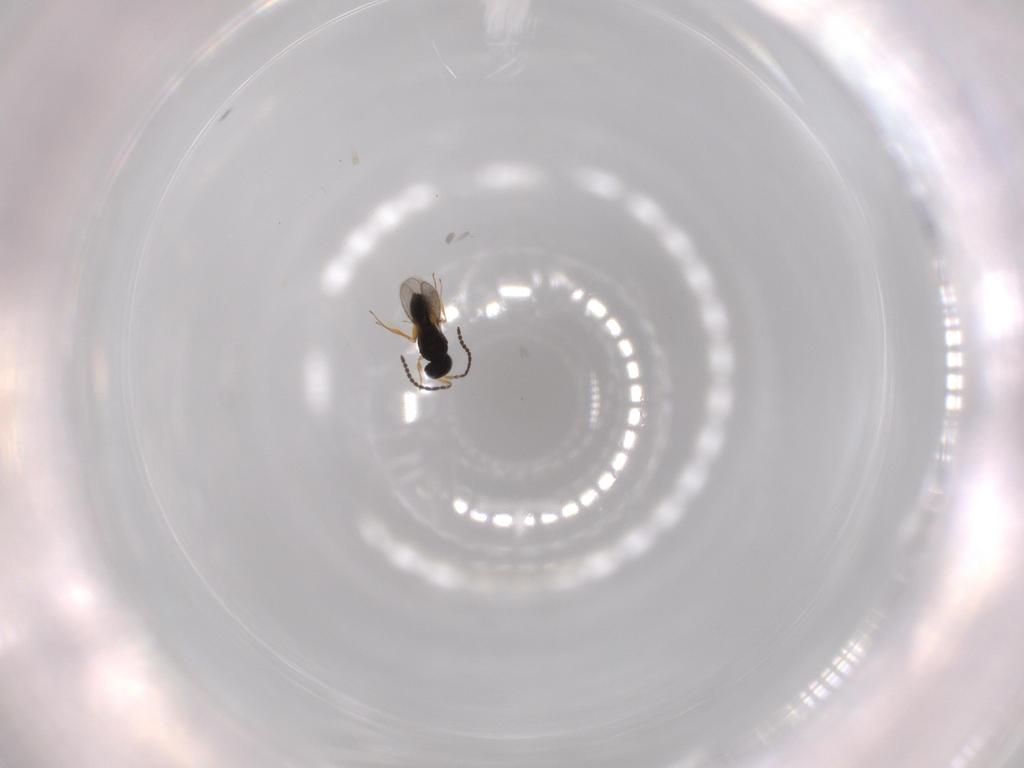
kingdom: Animalia
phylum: Arthropoda
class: Insecta
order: Hymenoptera
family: Scelionidae
